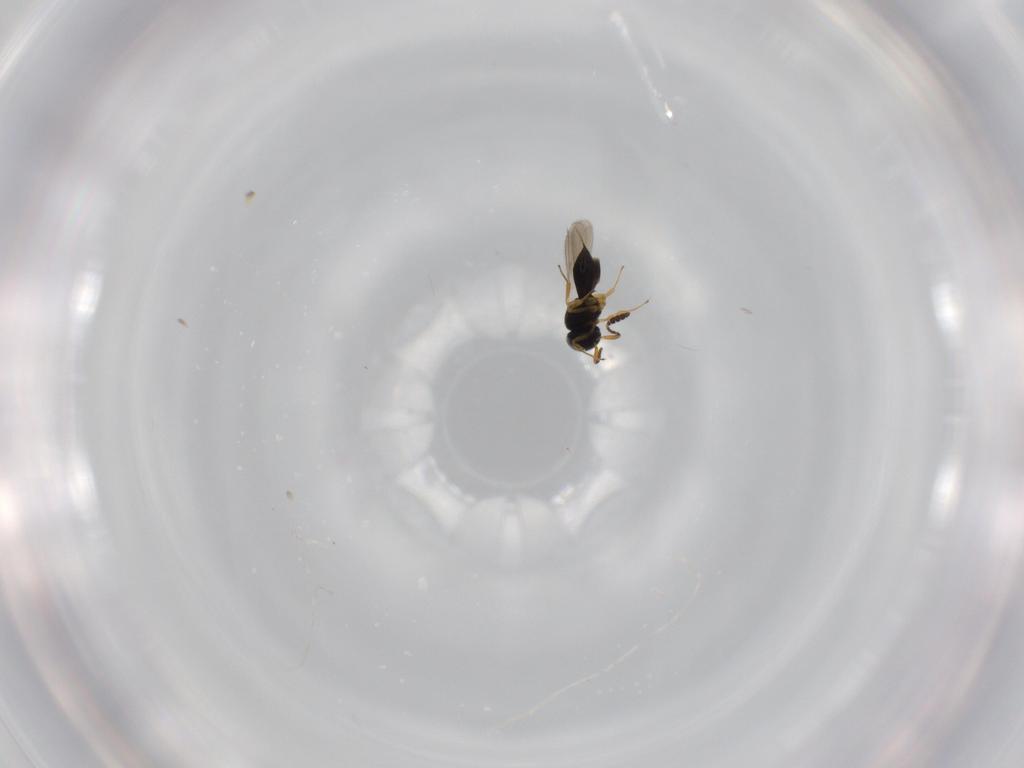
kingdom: Animalia
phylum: Arthropoda
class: Insecta
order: Hymenoptera
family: Scelionidae
